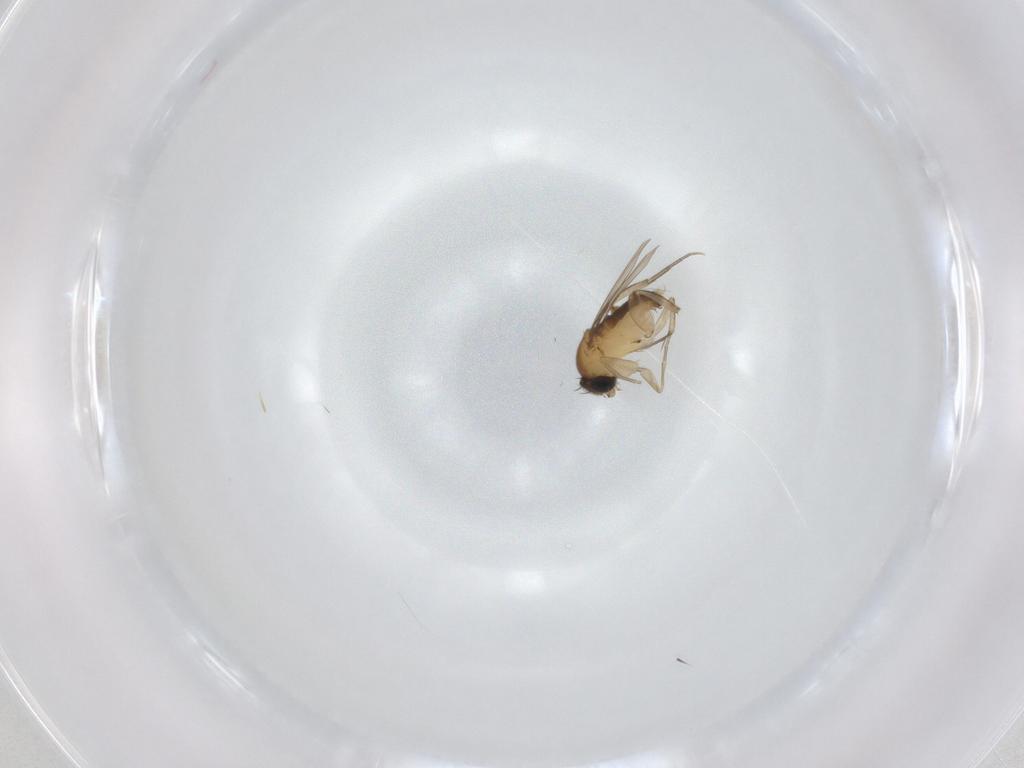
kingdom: Animalia
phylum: Arthropoda
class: Insecta
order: Diptera
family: Phoridae
